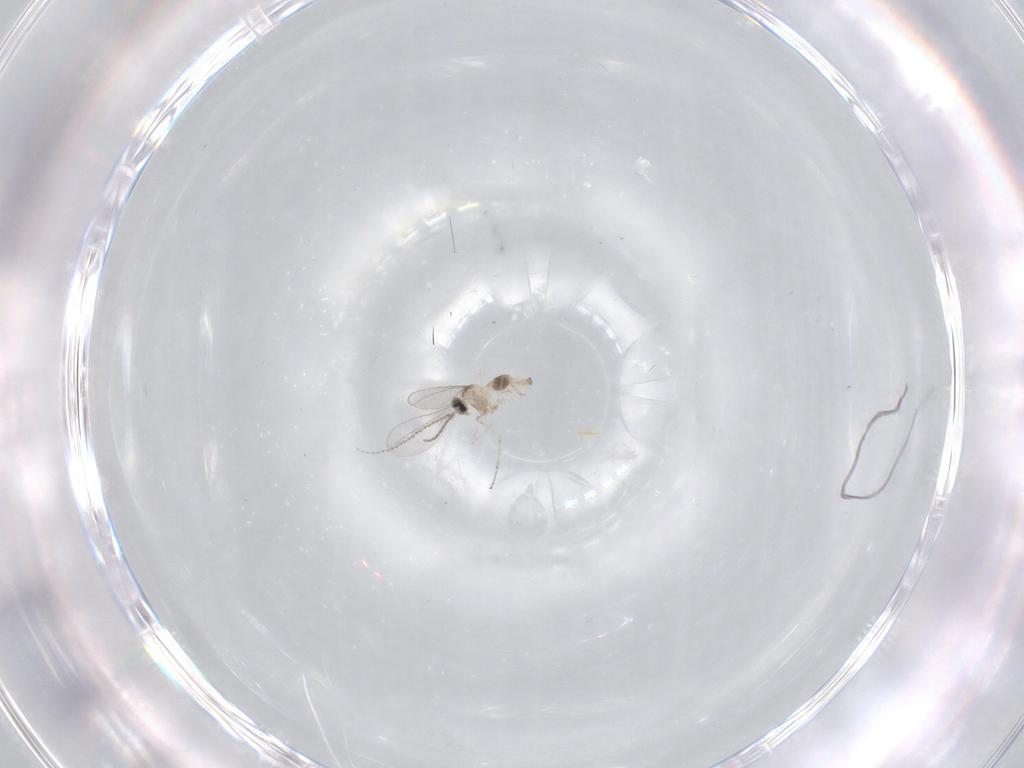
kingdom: Animalia
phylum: Arthropoda
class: Insecta
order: Diptera
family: Cecidomyiidae
